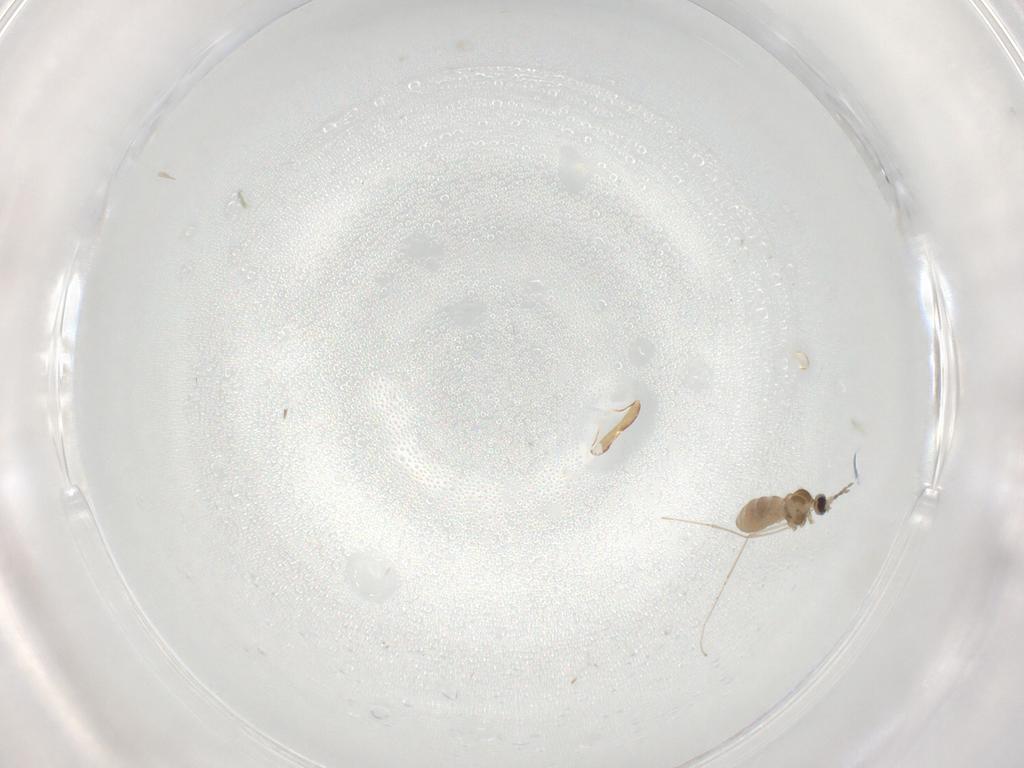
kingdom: Animalia
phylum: Arthropoda
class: Insecta
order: Diptera
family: Cecidomyiidae
